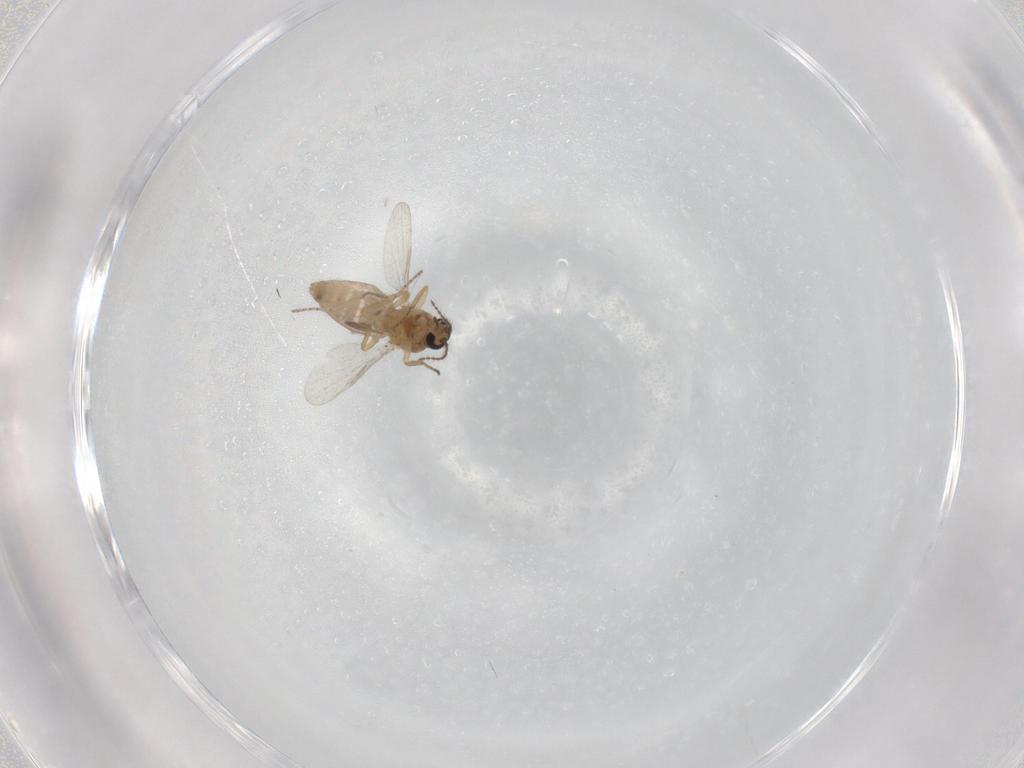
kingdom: Animalia
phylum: Arthropoda
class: Insecta
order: Diptera
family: Ceratopogonidae
